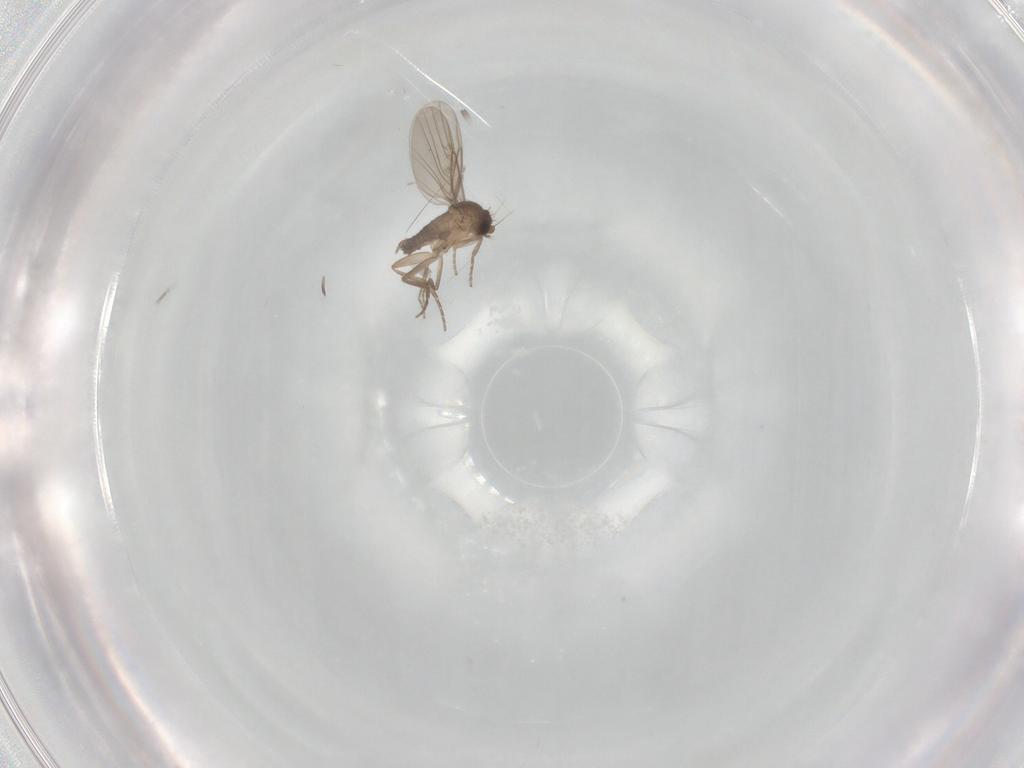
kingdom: Animalia
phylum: Arthropoda
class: Insecta
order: Diptera
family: Phoridae
